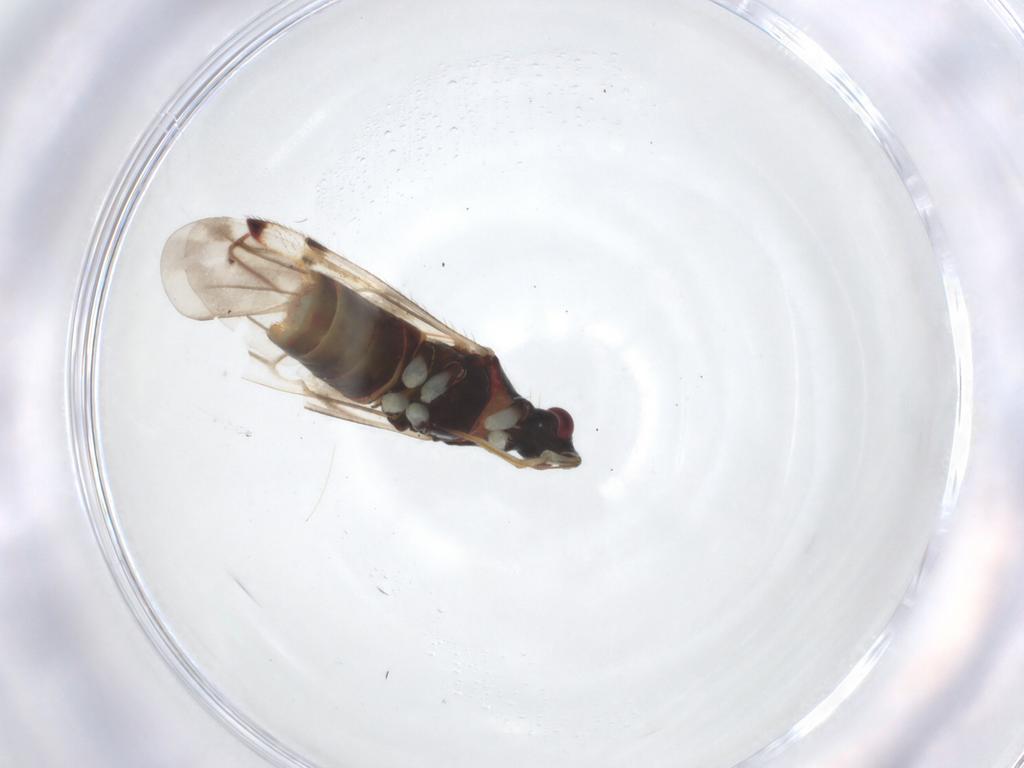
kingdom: Animalia
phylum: Arthropoda
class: Insecta
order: Hemiptera
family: Miridae
